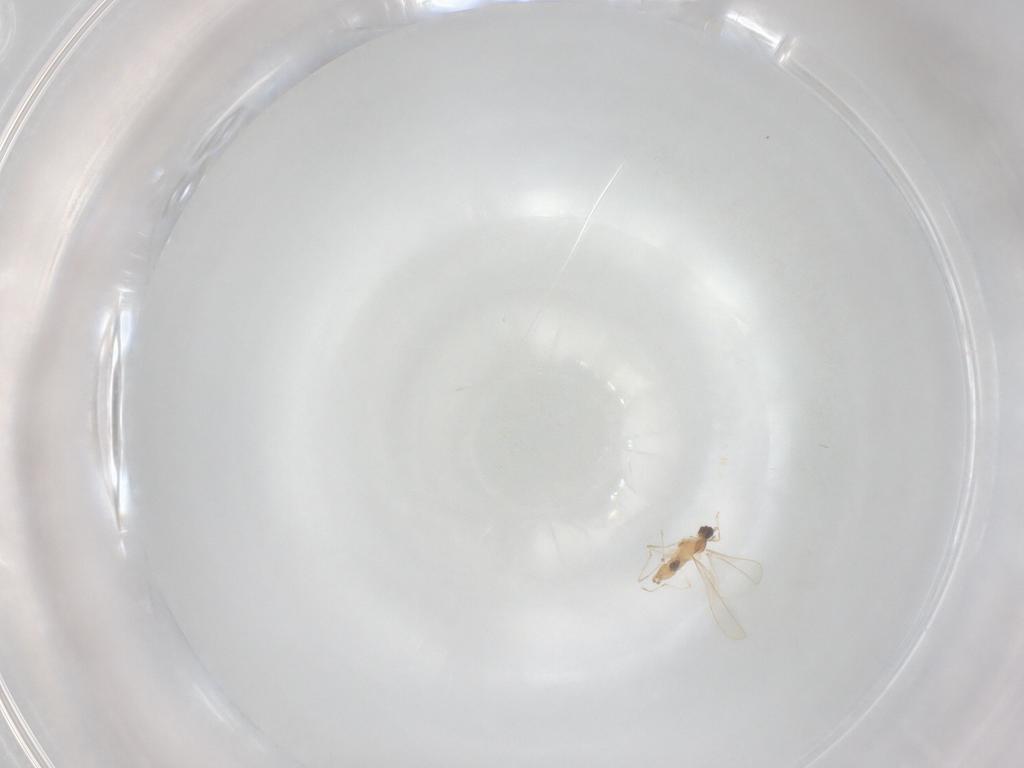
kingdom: Animalia
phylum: Arthropoda
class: Insecta
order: Diptera
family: Cecidomyiidae
